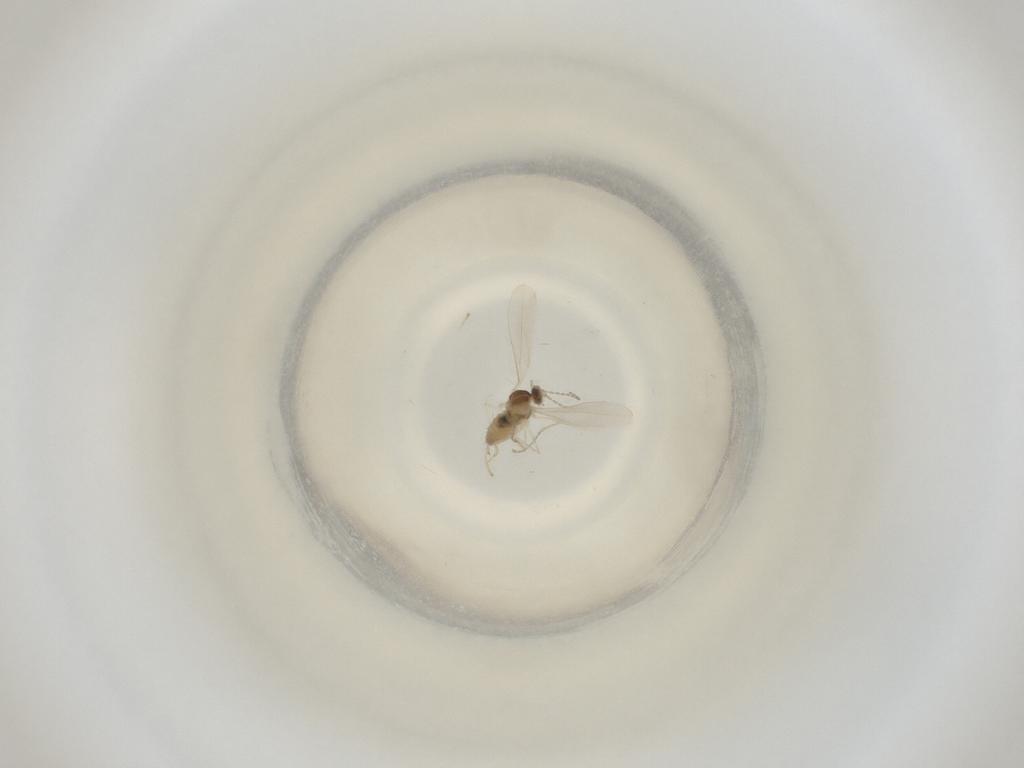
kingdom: Animalia
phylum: Arthropoda
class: Insecta
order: Diptera
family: Cecidomyiidae
